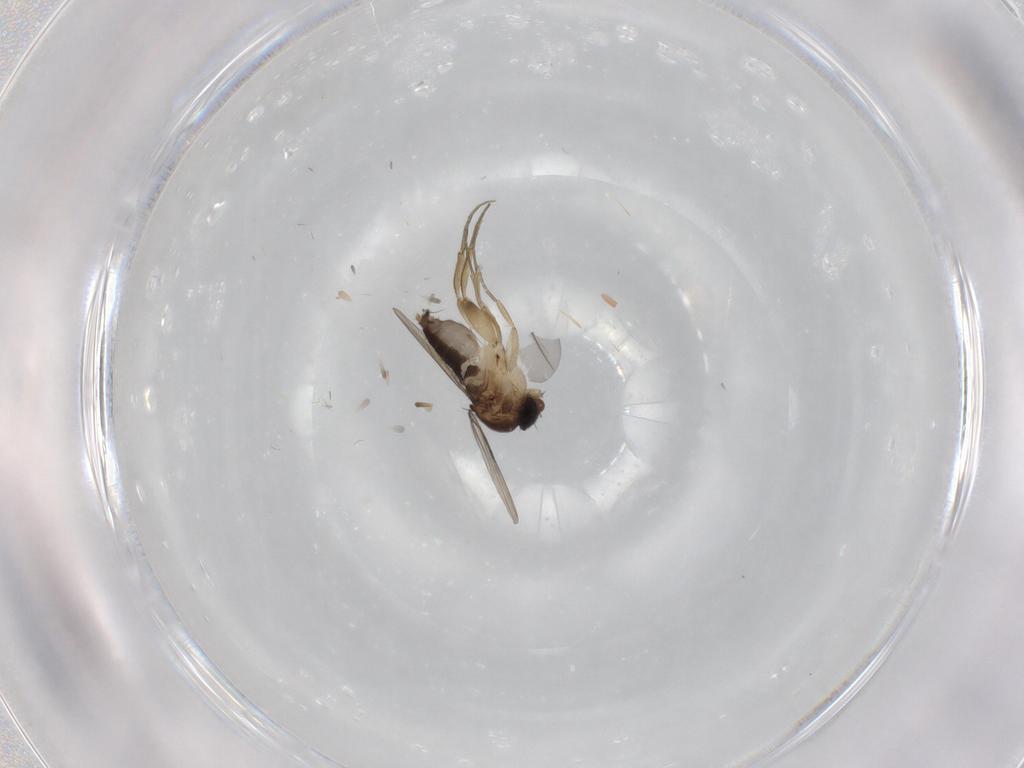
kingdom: Animalia
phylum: Arthropoda
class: Insecta
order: Diptera
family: Phoridae
